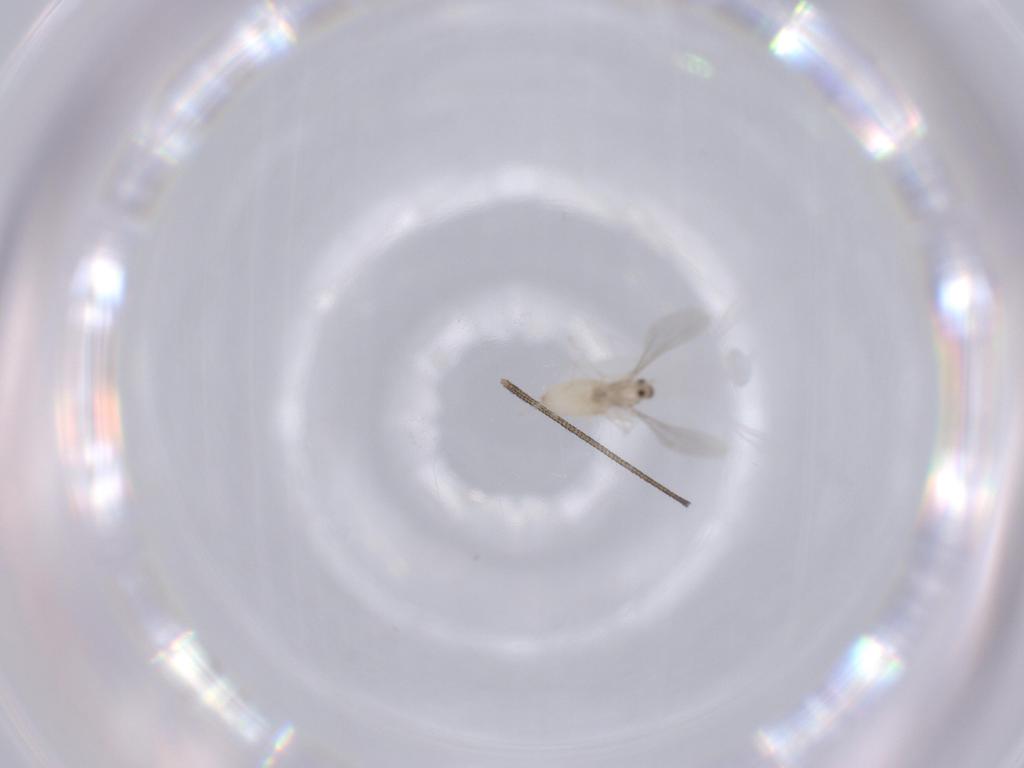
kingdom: Animalia
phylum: Arthropoda
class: Insecta
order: Diptera
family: Cecidomyiidae
